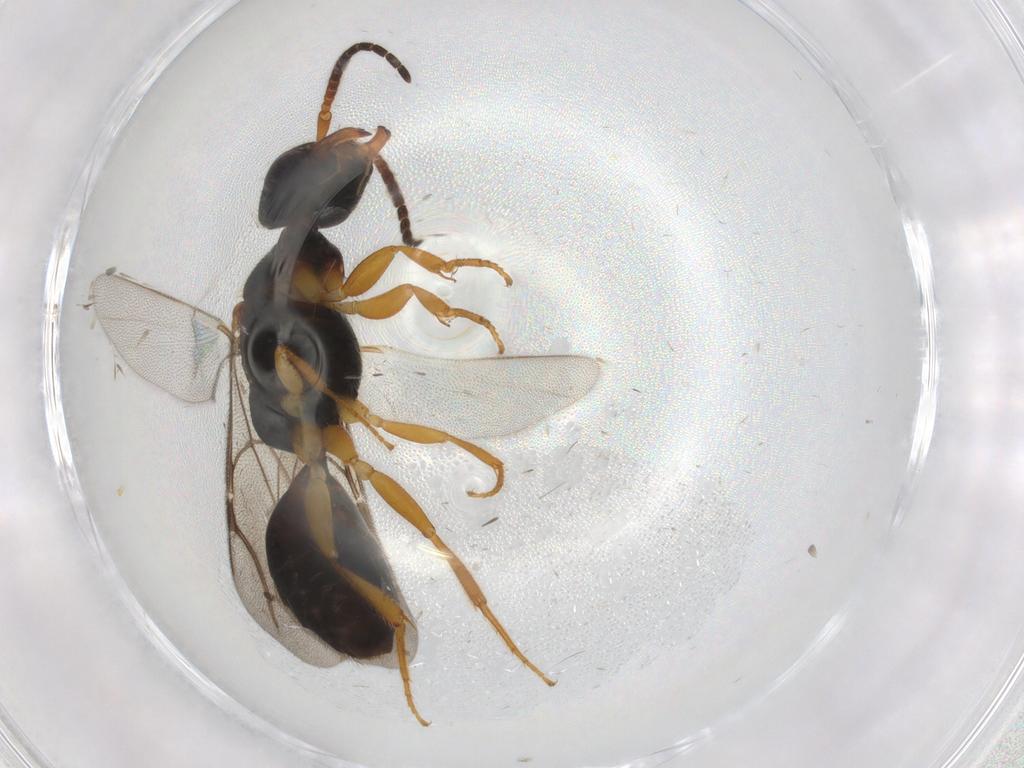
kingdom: Animalia
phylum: Arthropoda
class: Insecta
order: Hymenoptera
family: Bethylidae
